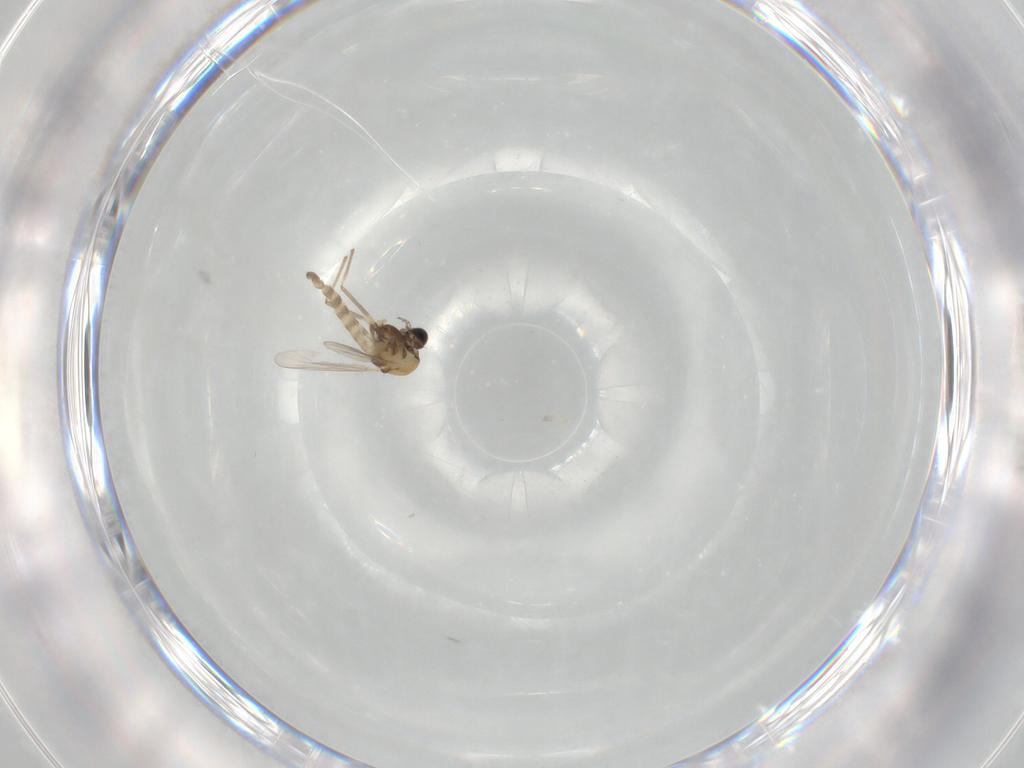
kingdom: Animalia
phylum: Arthropoda
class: Insecta
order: Diptera
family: Chironomidae
